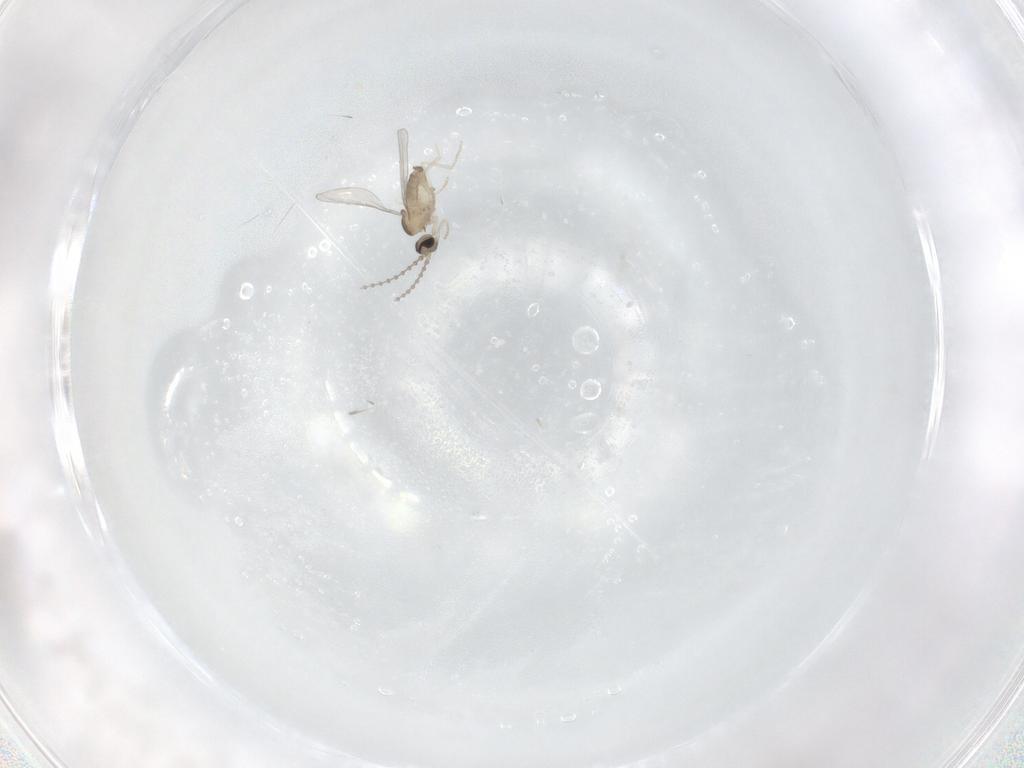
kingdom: Animalia
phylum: Arthropoda
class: Insecta
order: Diptera
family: Cecidomyiidae
